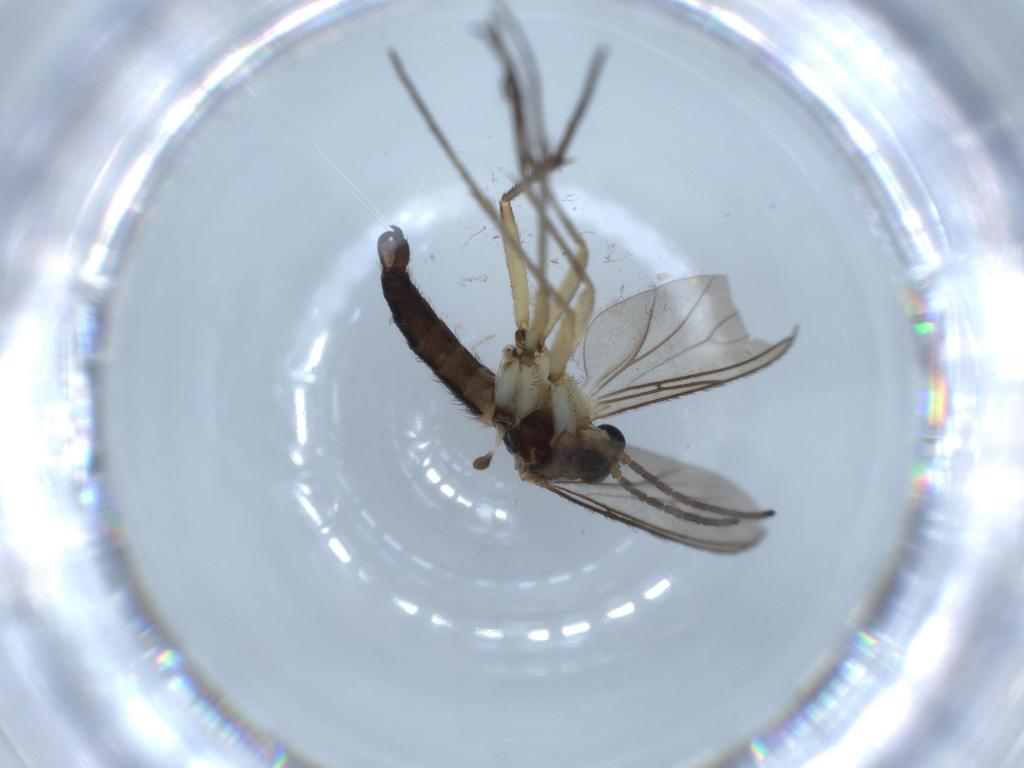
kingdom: Animalia
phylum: Arthropoda
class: Insecta
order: Diptera
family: Sciaridae
